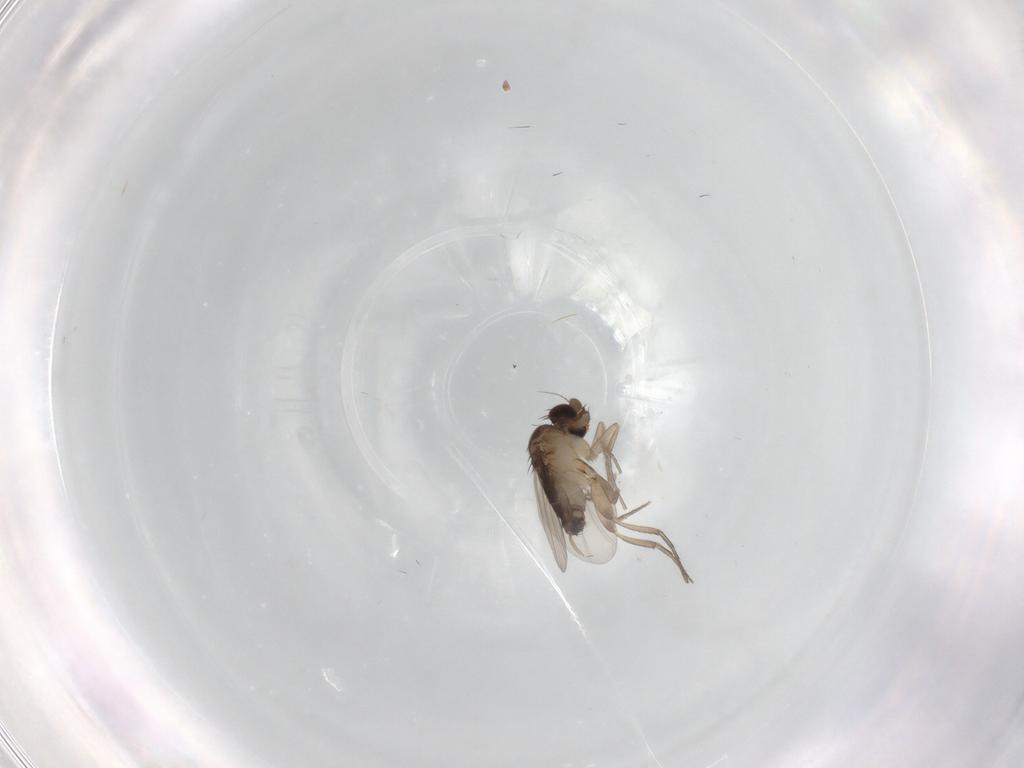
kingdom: Animalia
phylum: Arthropoda
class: Insecta
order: Diptera
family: Phoridae
